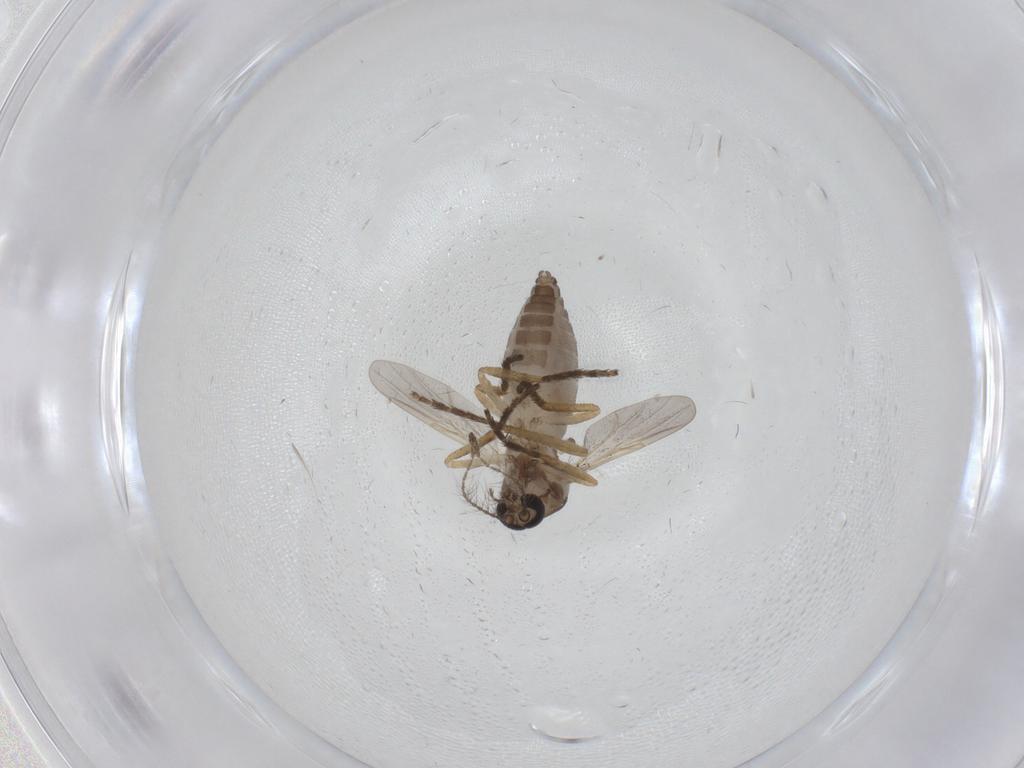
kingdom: Animalia
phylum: Arthropoda
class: Insecta
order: Diptera
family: Ceratopogonidae
